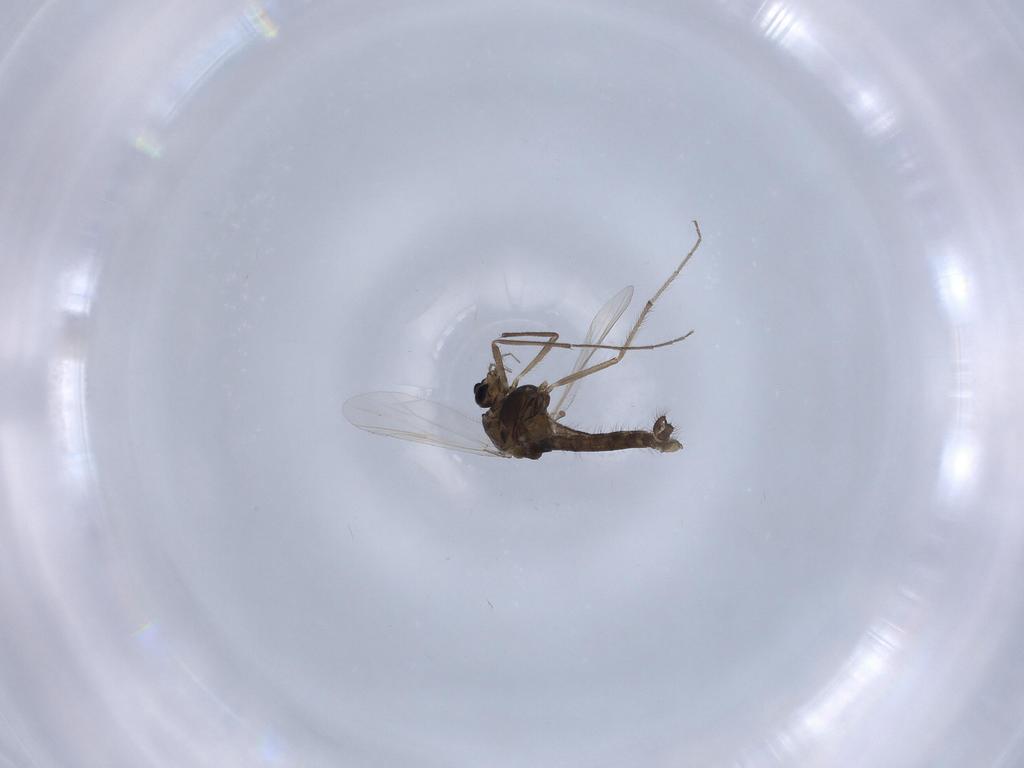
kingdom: Animalia
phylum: Arthropoda
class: Insecta
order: Diptera
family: Chironomidae
